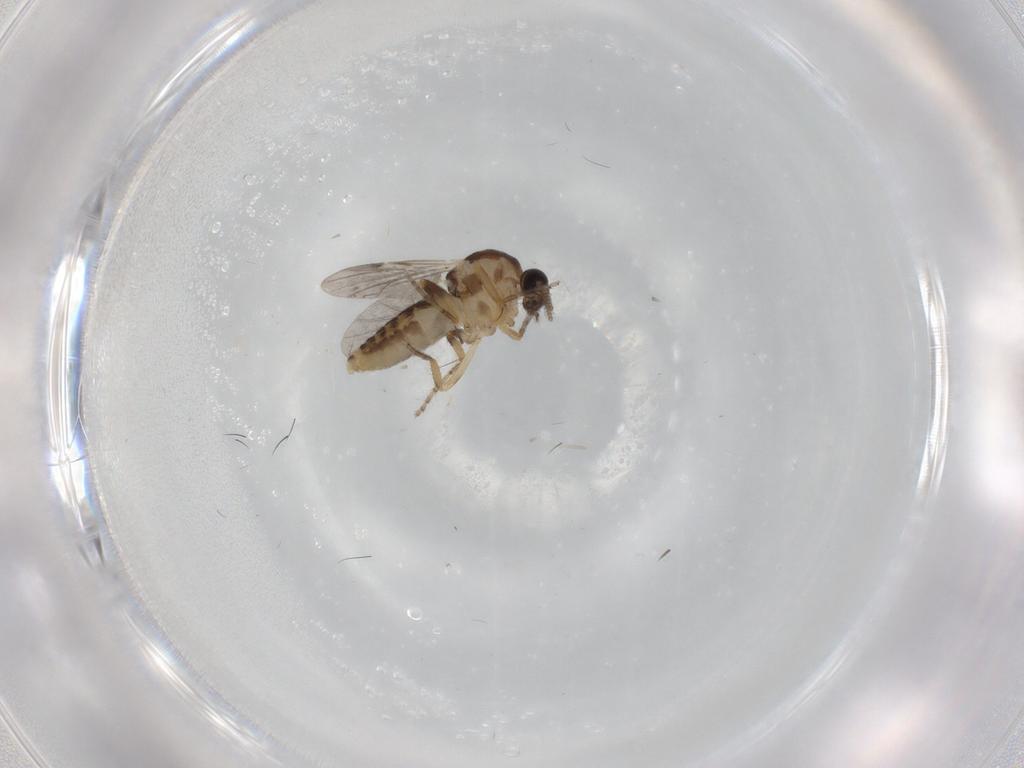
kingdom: Animalia
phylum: Arthropoda
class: Insecta
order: Diptera
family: Ceratopogonidae
